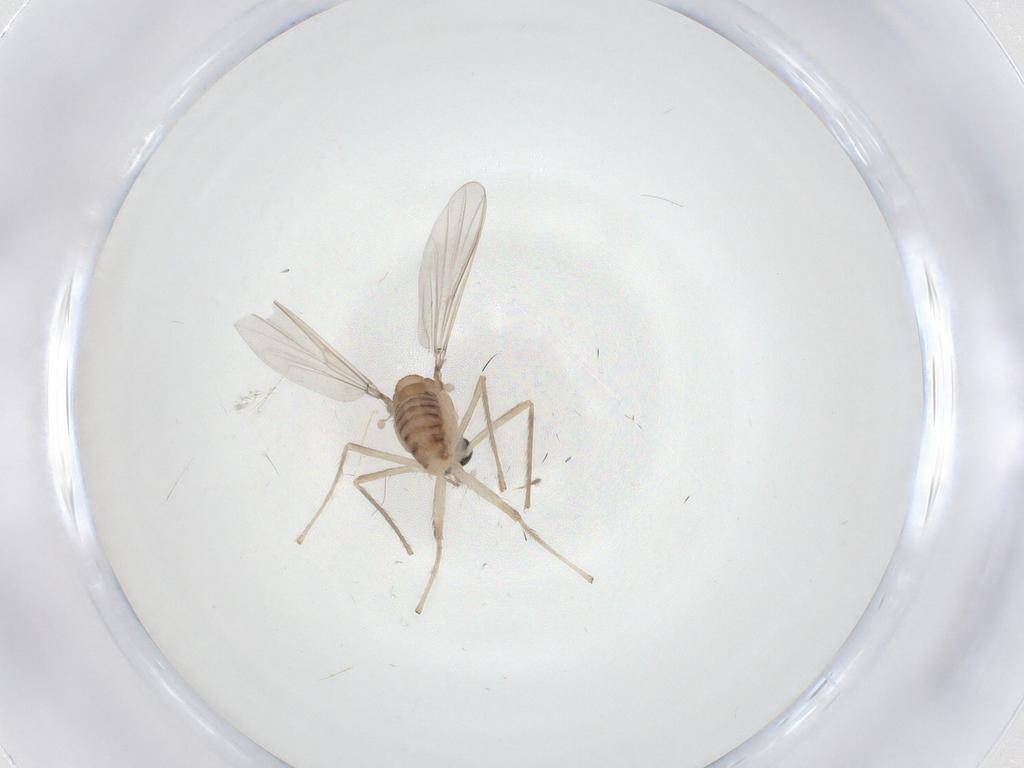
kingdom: Animalia
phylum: Arthropoda
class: Insecta
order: Diptera
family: Chironomidae
